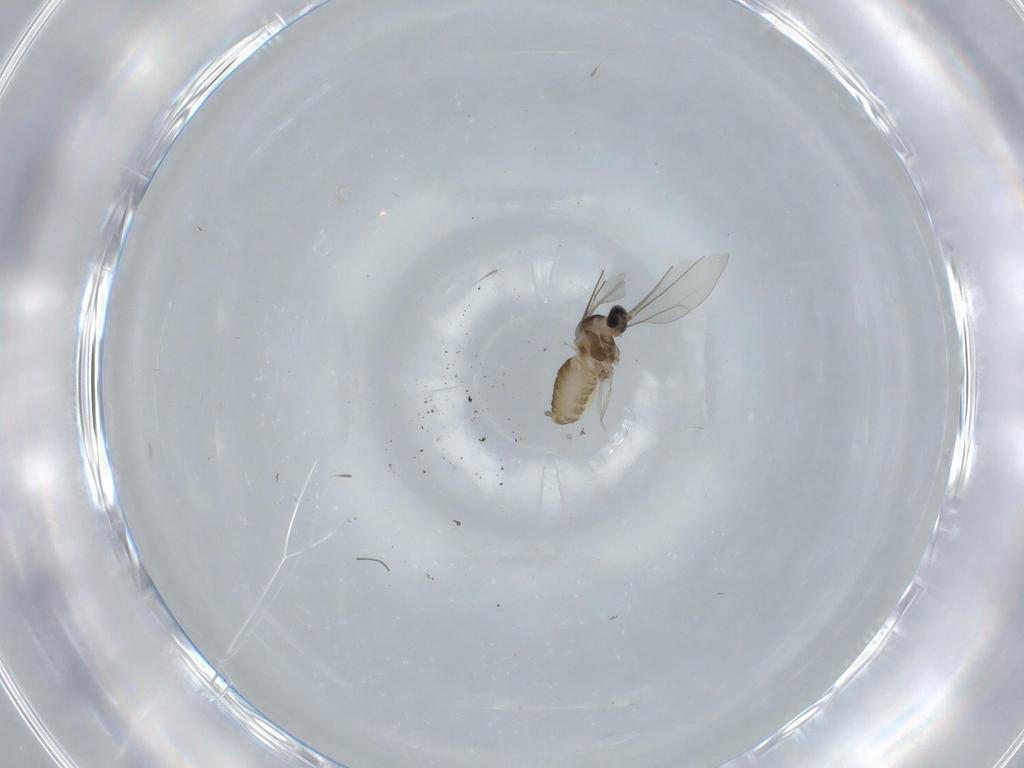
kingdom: Animalia
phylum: Arthropoda
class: Insecta
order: Diptera
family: Cecidomyiidae
